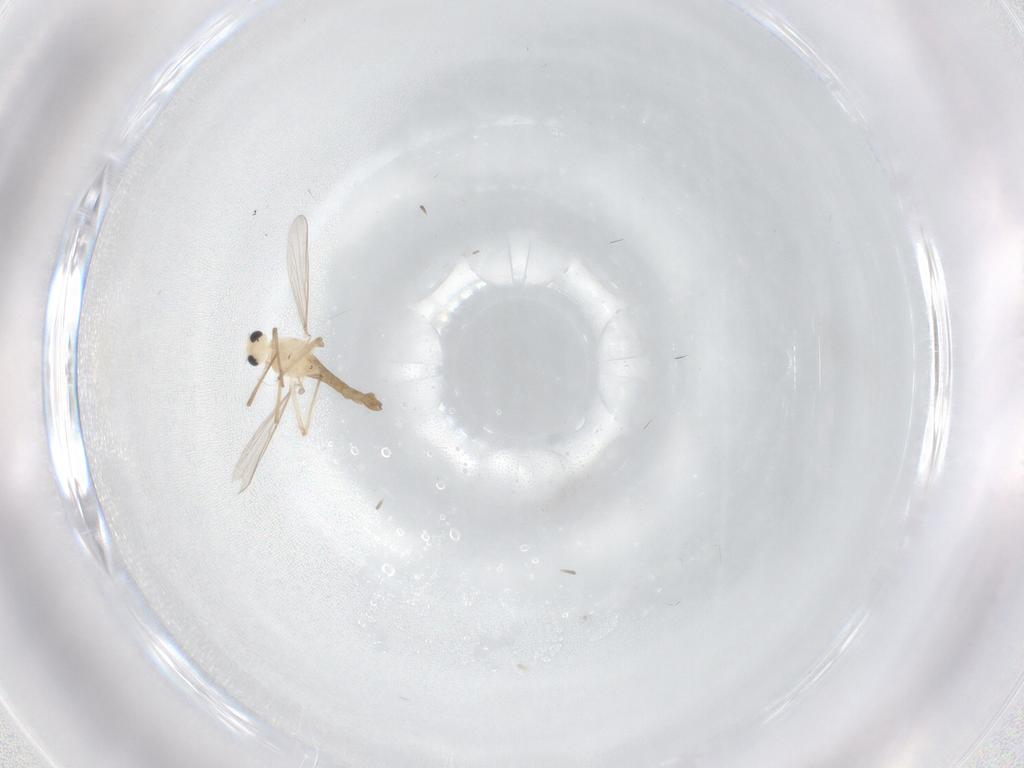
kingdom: Animalia
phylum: Arthropoda
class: Insecta
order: Diptera
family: Chironomidae
